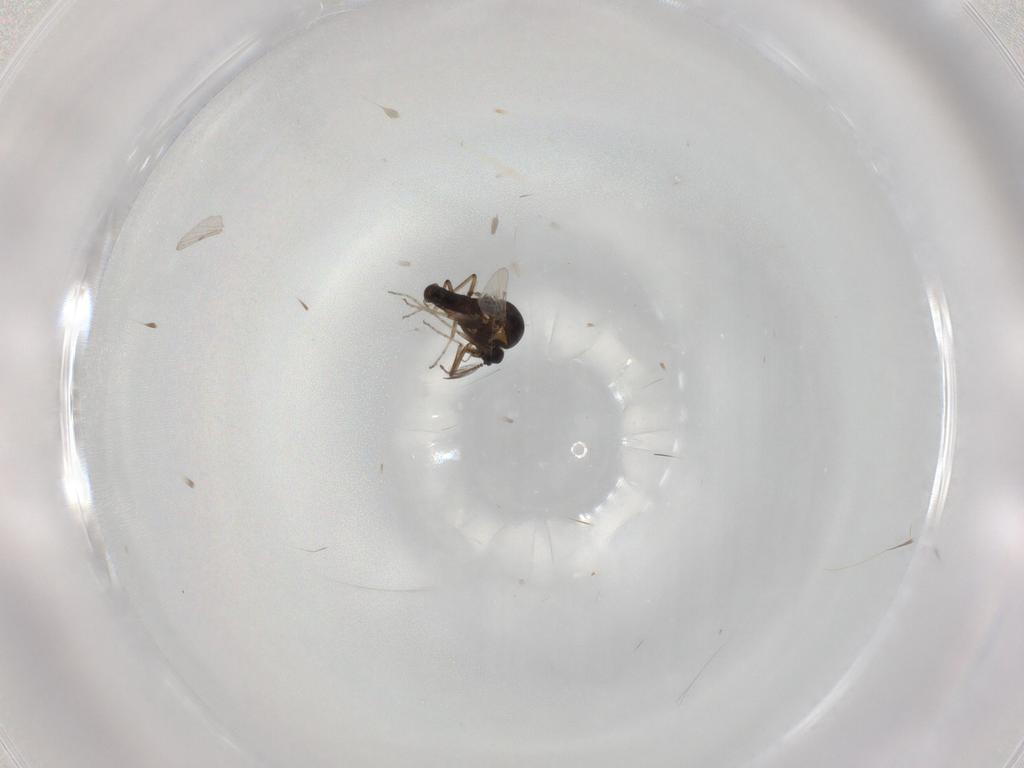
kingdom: Animalia
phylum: Arthropoda
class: Insecta
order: Diptera
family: Ceratopogonidae
